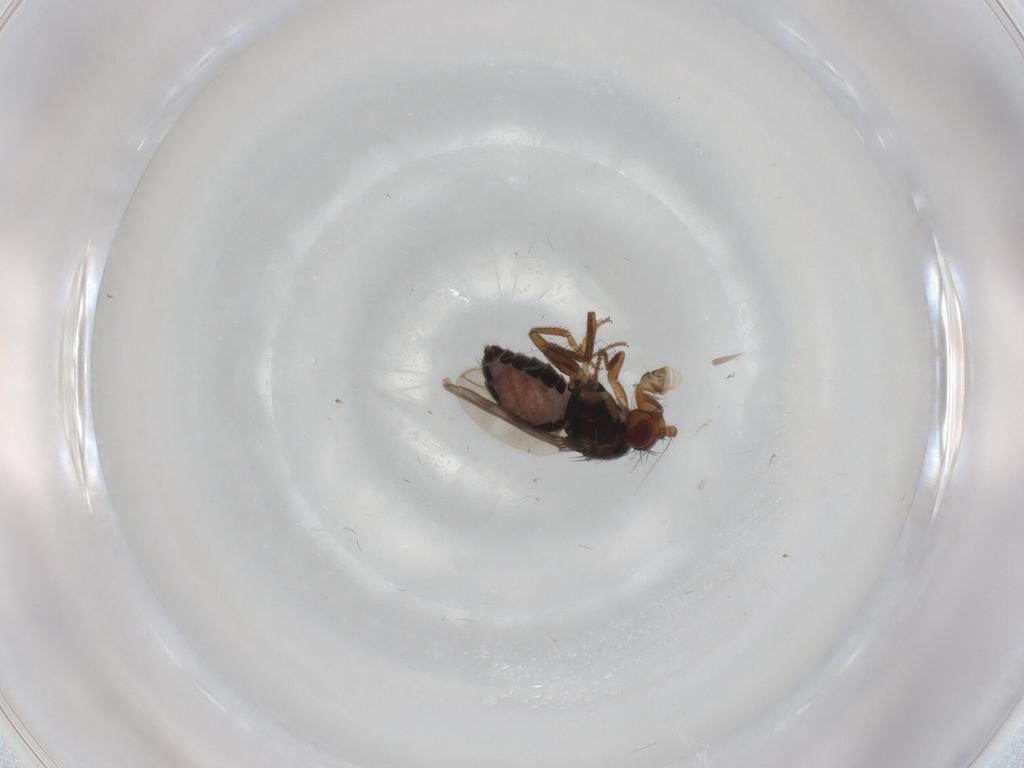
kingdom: Animalia
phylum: Arthropoda
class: Insecta
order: Diptera
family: Sphaeroceridae
